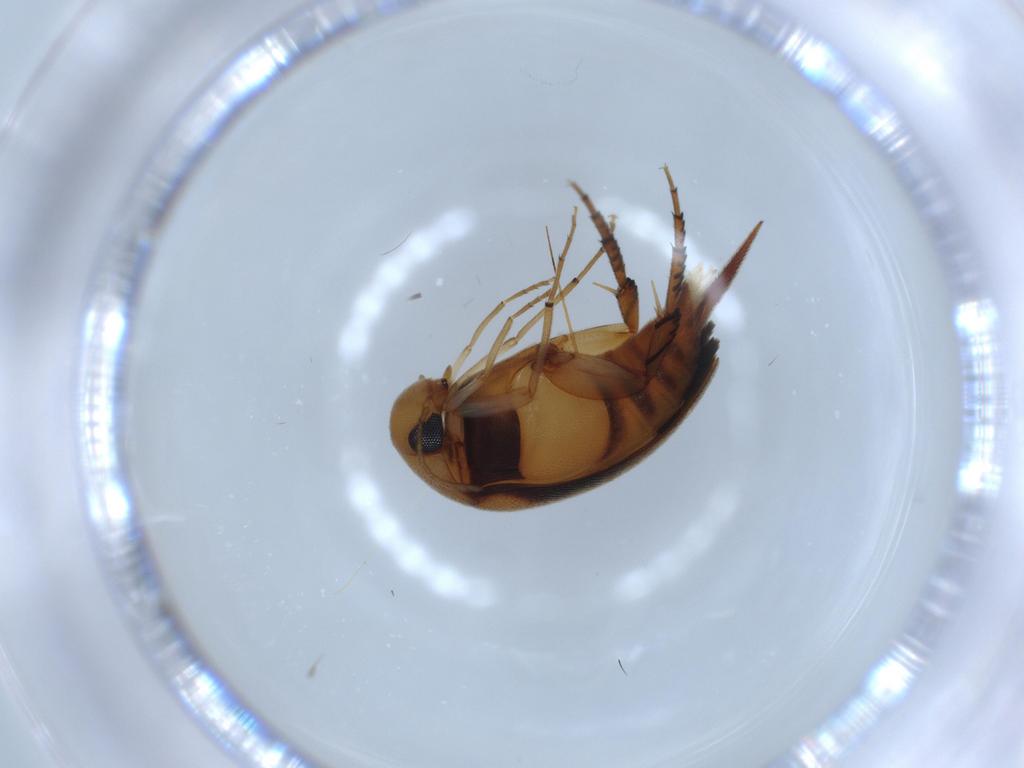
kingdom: Animalia
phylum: Arthropoda
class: Insecta
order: Coleoptera
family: Mordellidae
